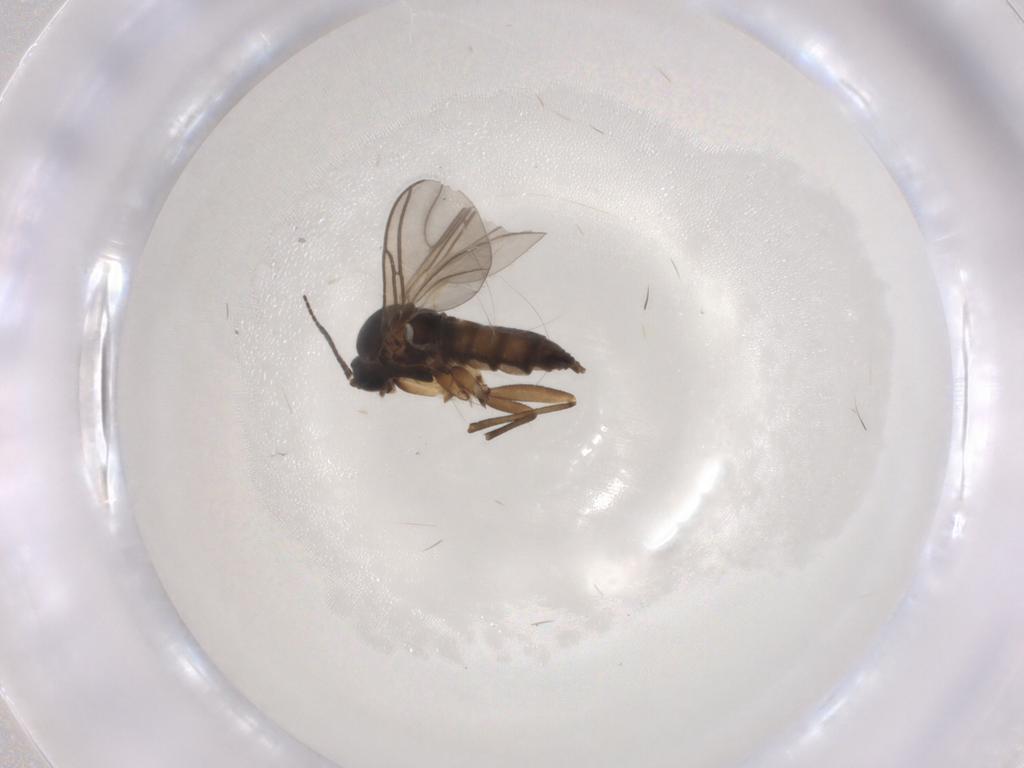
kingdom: Animalia
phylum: Arthropoda
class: Insecta
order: Diptera
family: Sciaridae
